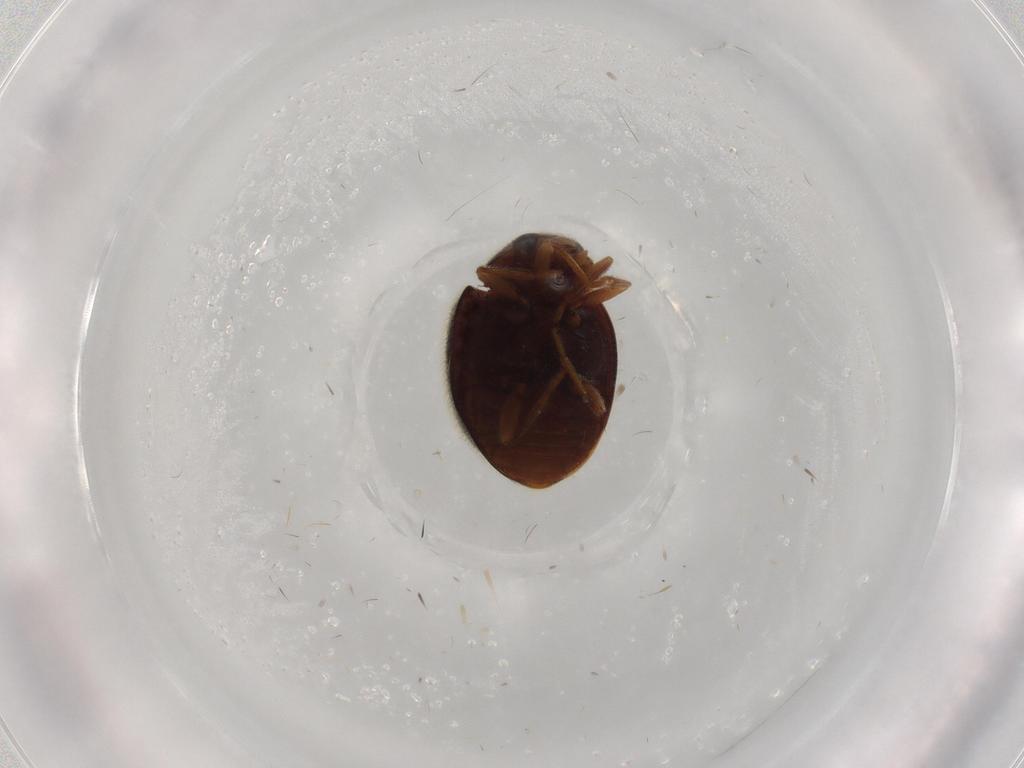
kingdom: Animalia
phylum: Arthropoda
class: Insecta
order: Coleoptera
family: Coccinellidae
